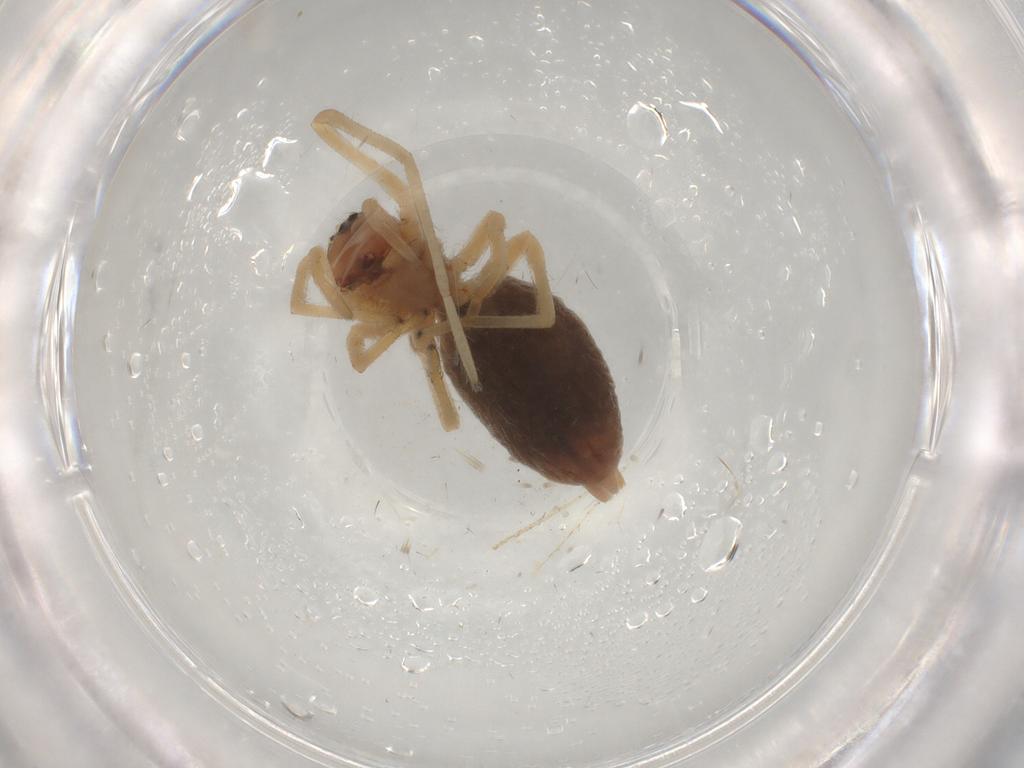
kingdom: Animalia
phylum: Arthropoda
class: Arachnida
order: Araneae
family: Cheiracanthiidae
